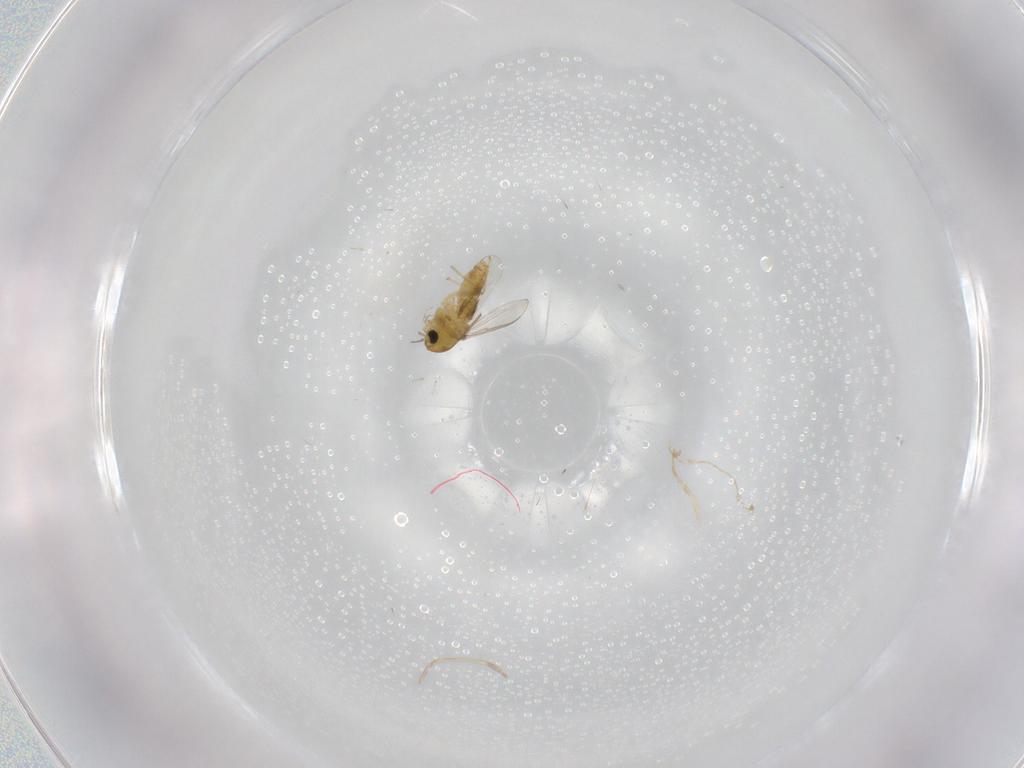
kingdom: Animalia
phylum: Arthropoda
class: Insecta
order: Diptera
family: Chironomidae
